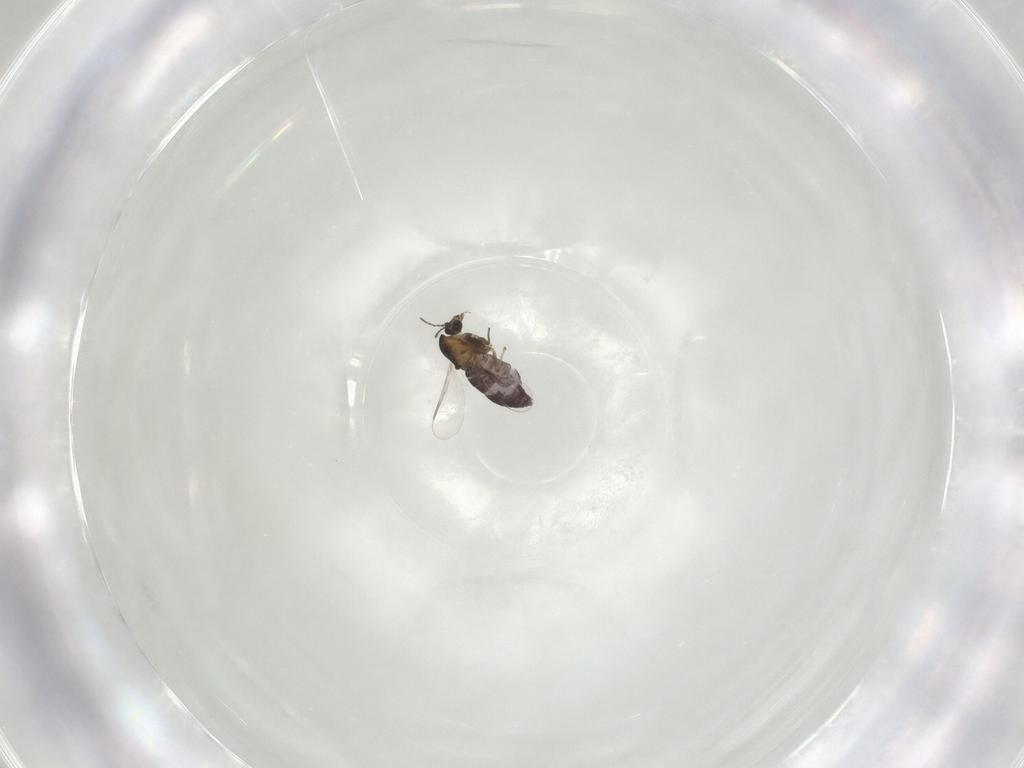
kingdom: Animalia
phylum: Arthropoda
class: Insecta
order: Diptera
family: Chironomidae
